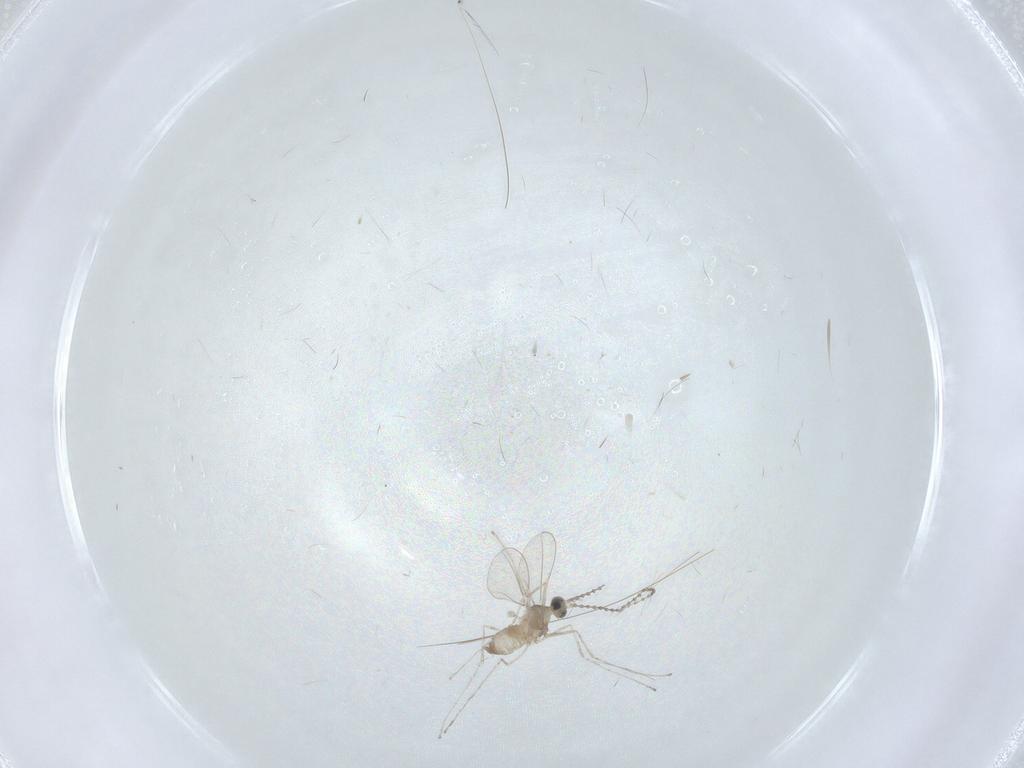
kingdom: Animalia
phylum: Arthropoda
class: Insecta
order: Diptera
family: Cecidomyiidae
